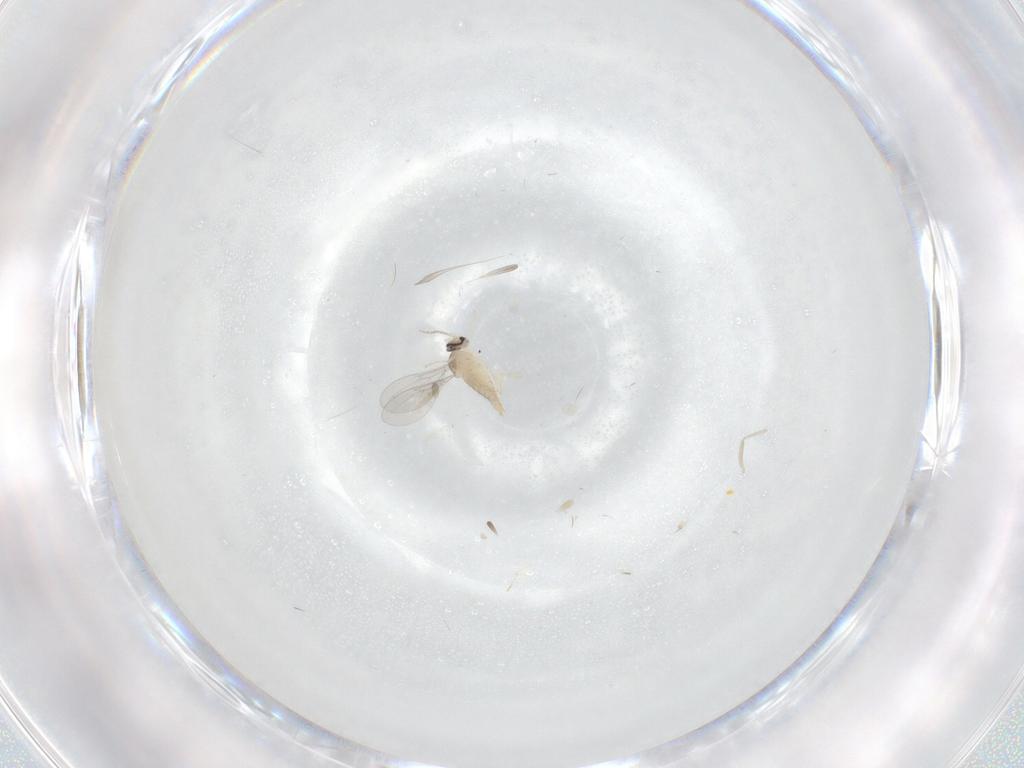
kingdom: Animalia
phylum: Arthropoda
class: Insecta
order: Diptera
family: Cecidomyiidae
